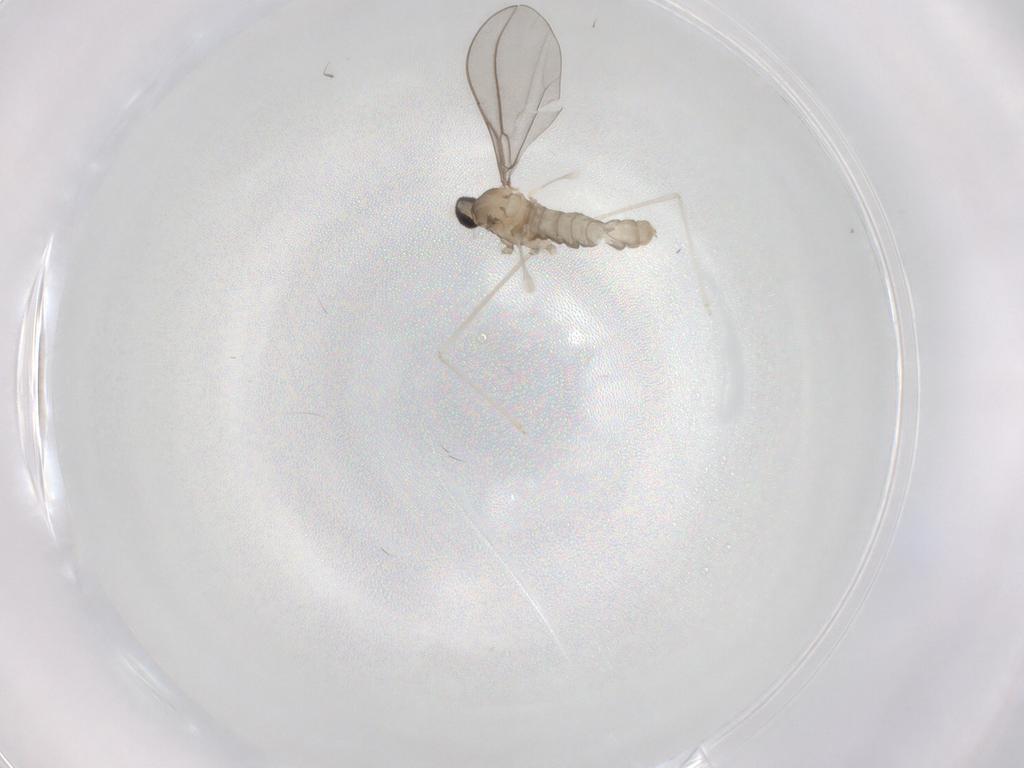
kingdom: Animalia
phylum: Arthropoda
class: Insecta
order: Diptera
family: Cecidomyiidae
